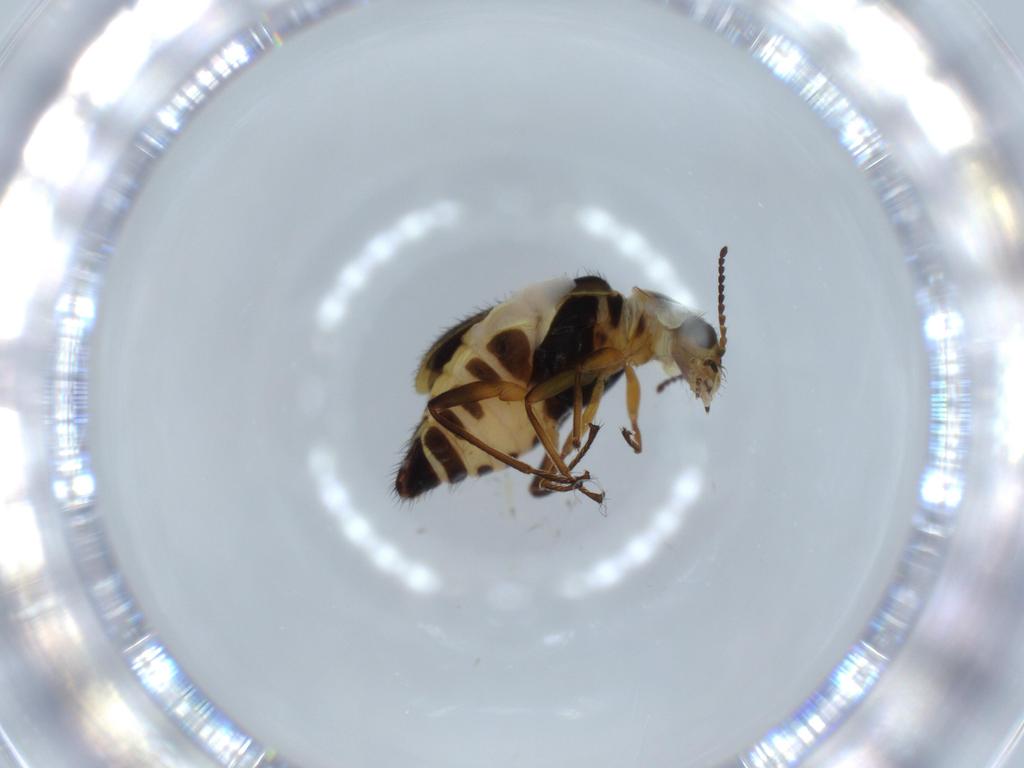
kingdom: Animalia
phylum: Arthropoda
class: Insecta
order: Coleoptera
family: Melyridae
